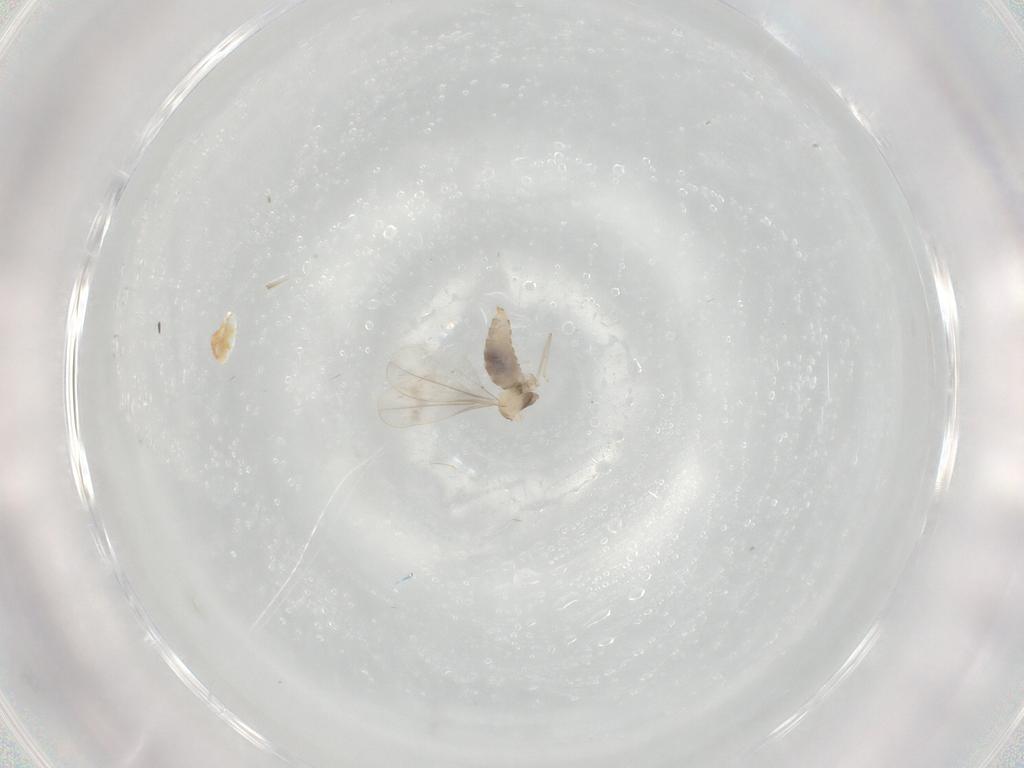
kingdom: Animalia
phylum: Arthropoda
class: Insecta
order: Diptera
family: Cecidomyiidae
